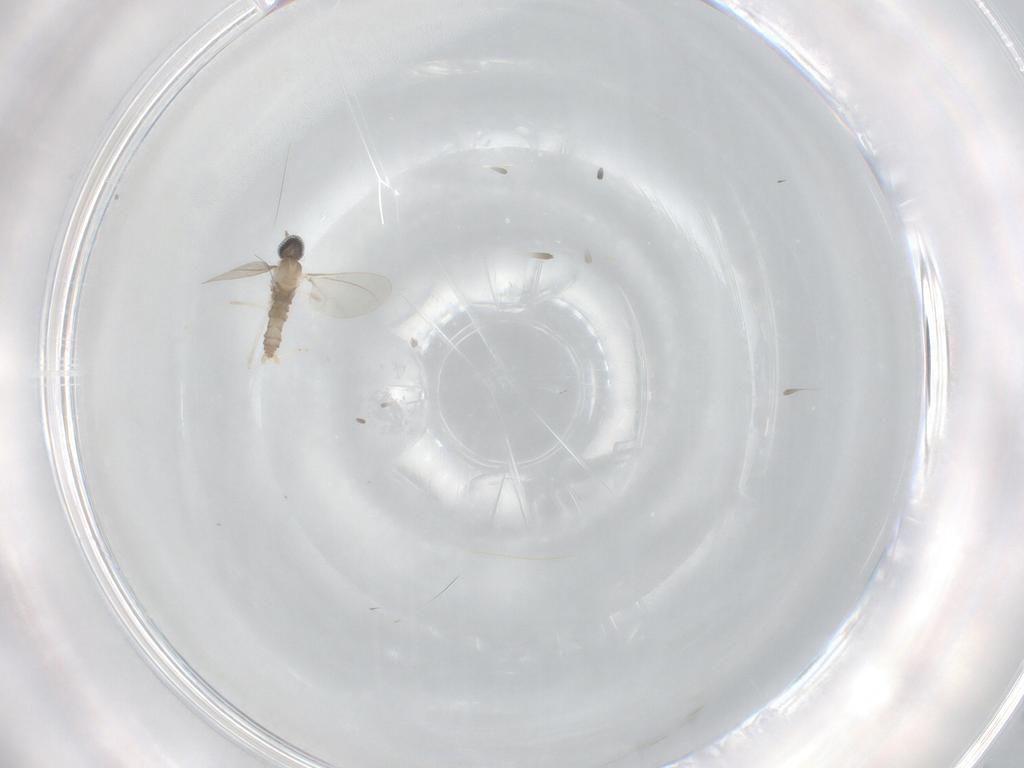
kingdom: Animalia
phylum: Arthropoda
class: Insecta
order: Diptera
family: Cecidomyiidae
